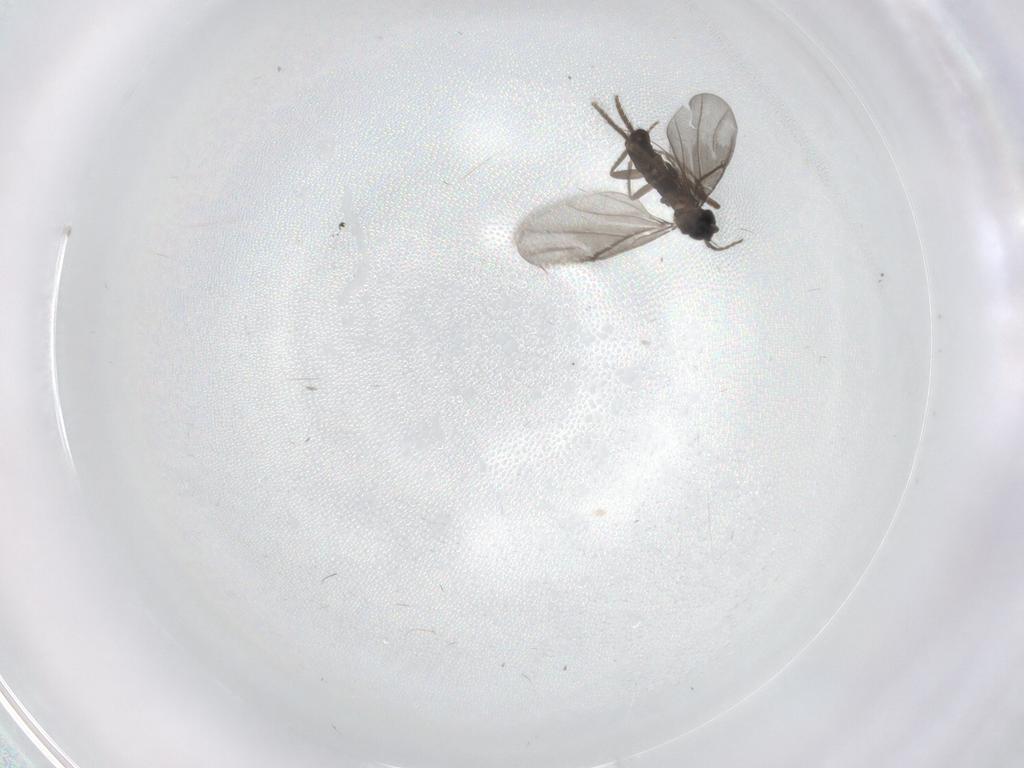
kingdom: Animalia
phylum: Arthropoda
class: Insecta
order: Diptera
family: Phoridae
